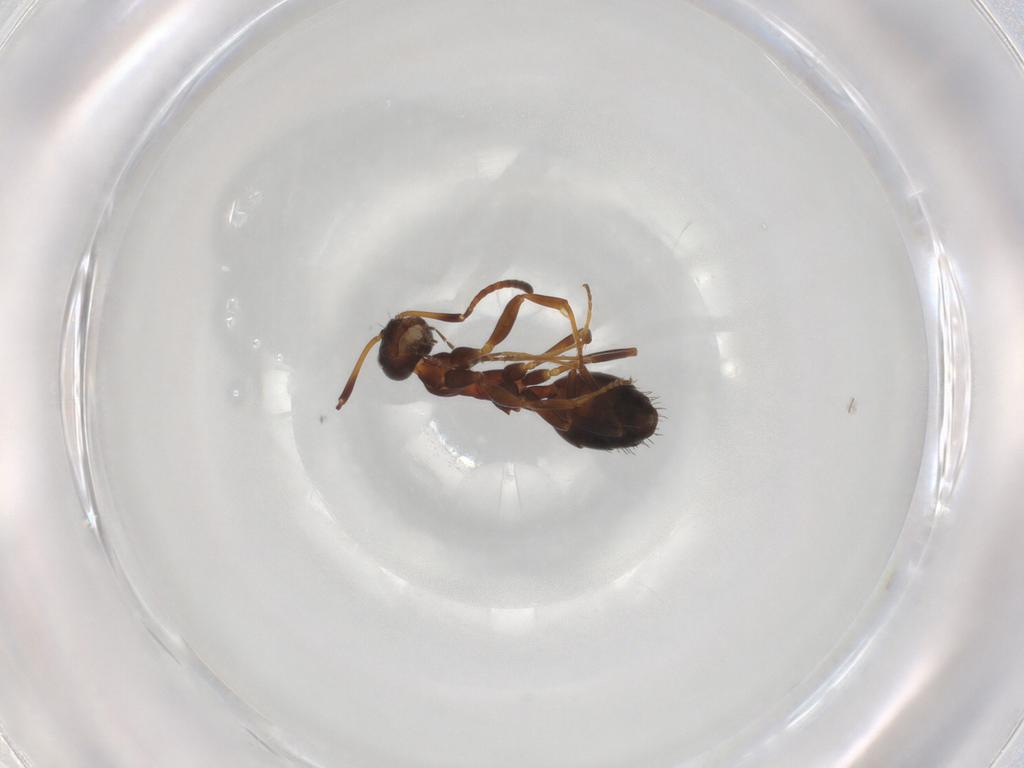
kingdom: Animalia
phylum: Arthropoda
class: Insecta
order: Hymenoptera
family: Formicidae
